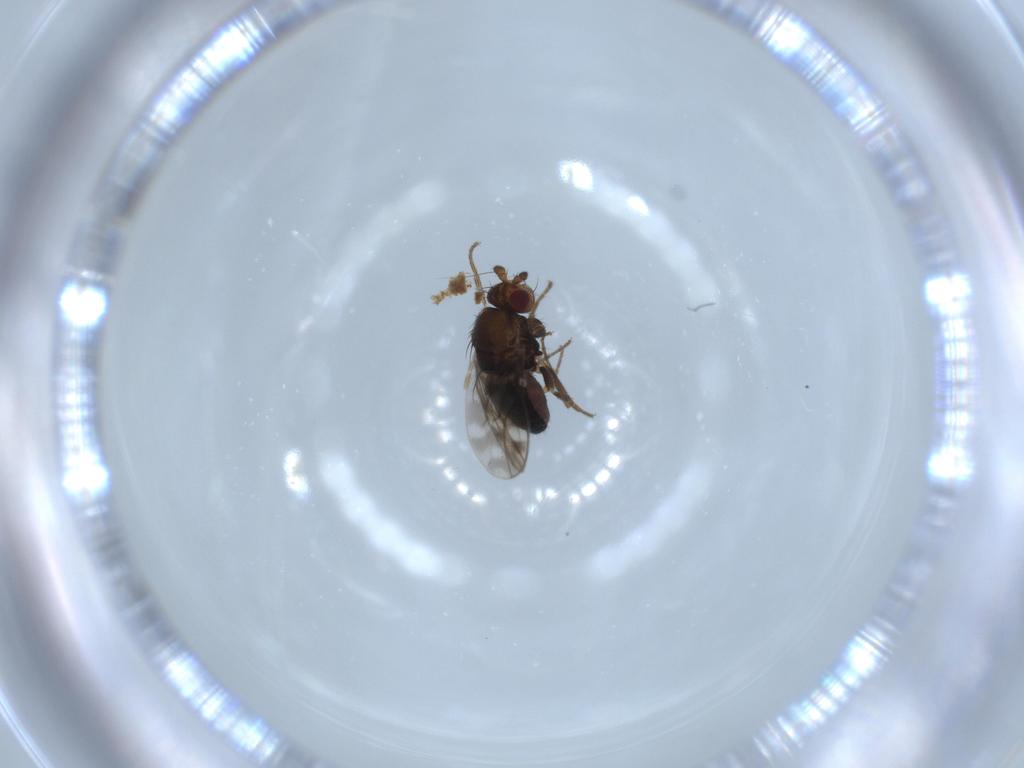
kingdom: Animalia
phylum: Arthropoda
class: Insecta
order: Diptera
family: Sphaeroceridae
